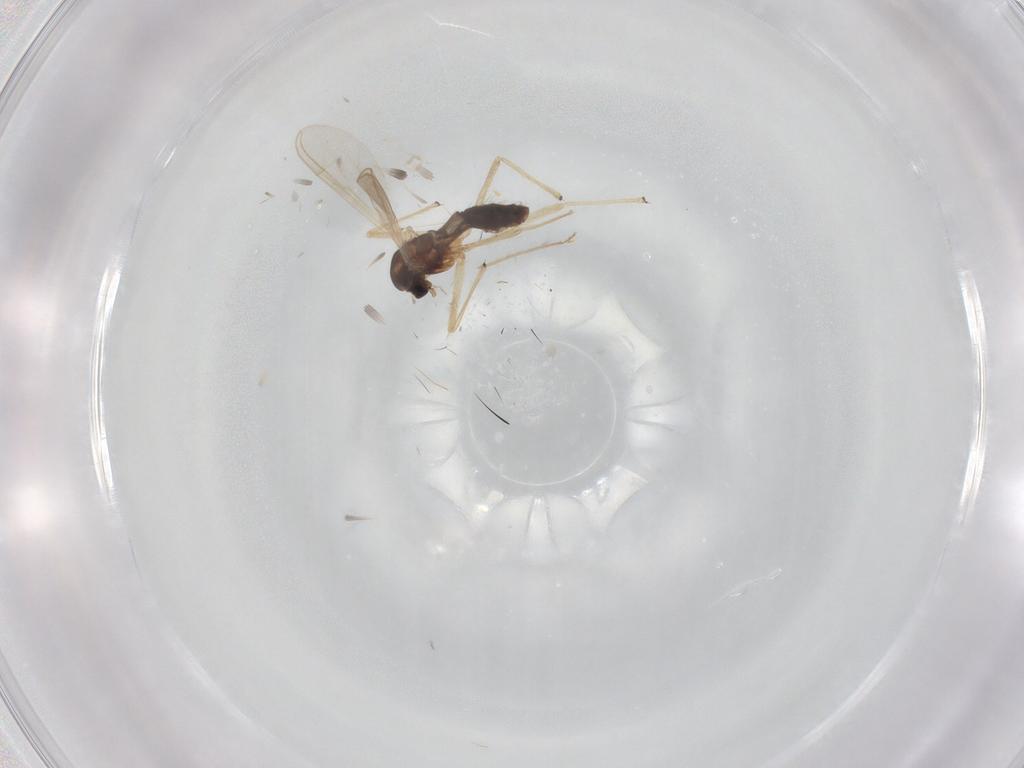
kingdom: Animalia
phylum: Arthropoda
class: Insecta
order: Diptera
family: Chironomidae
